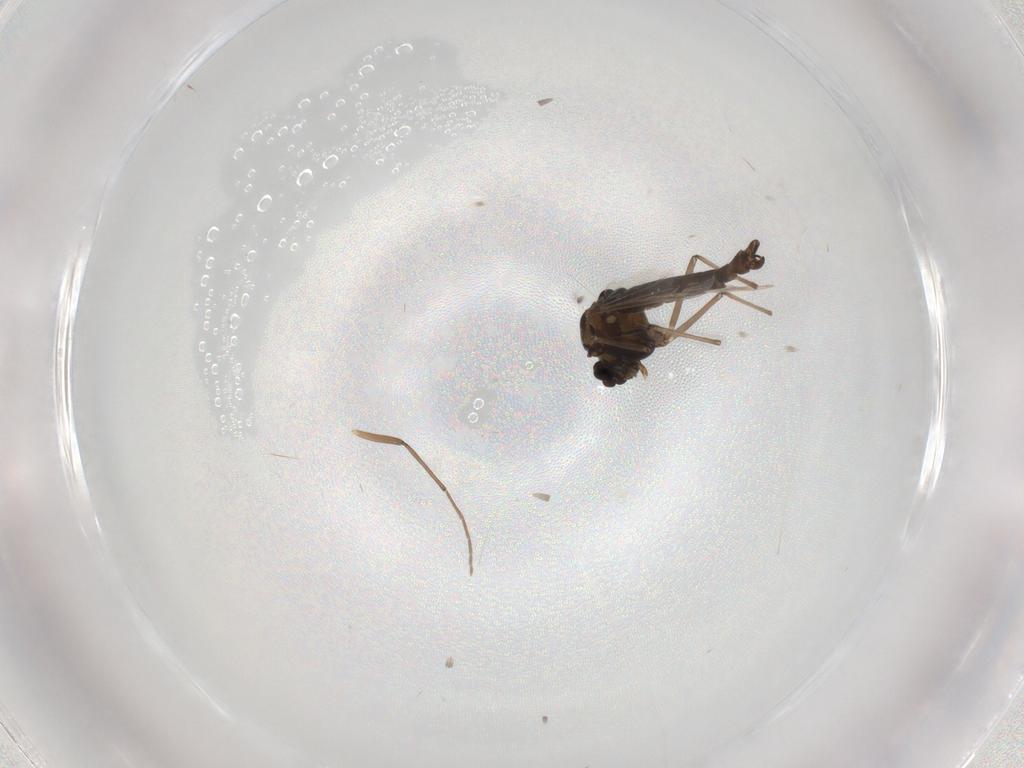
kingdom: Animalia
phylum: Arthropoda
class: Insecta
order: Diptera
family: Chironomidae
